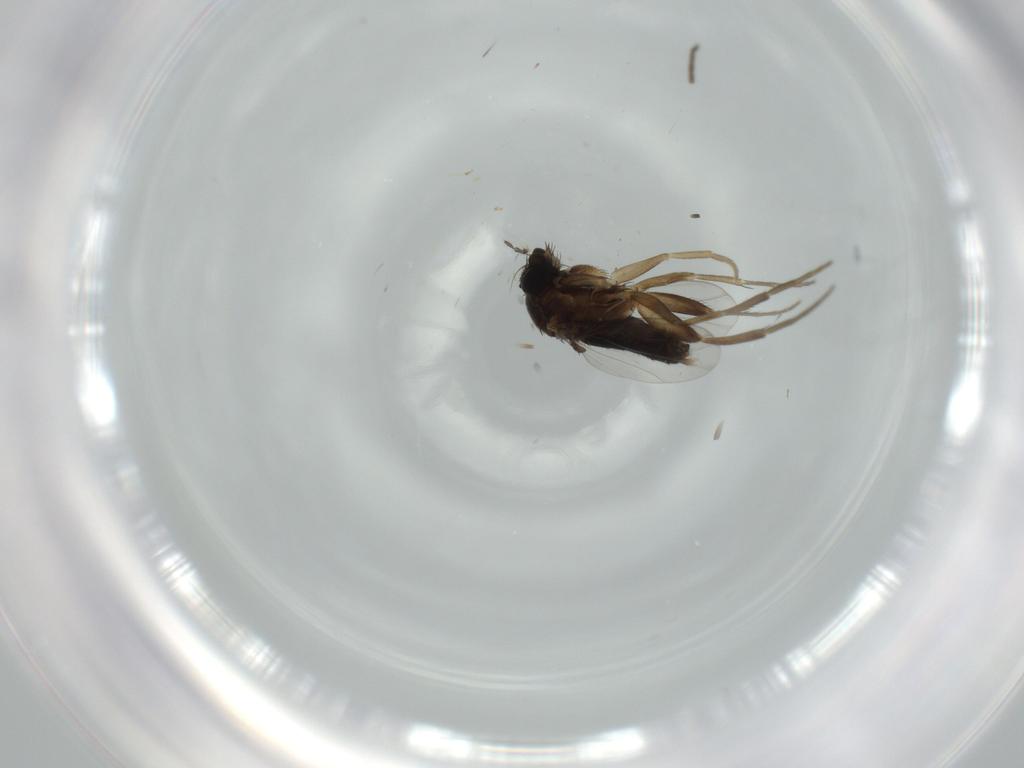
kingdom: Animalia
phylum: Arthropoda
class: Insecta
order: Diptera
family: Phoridae
